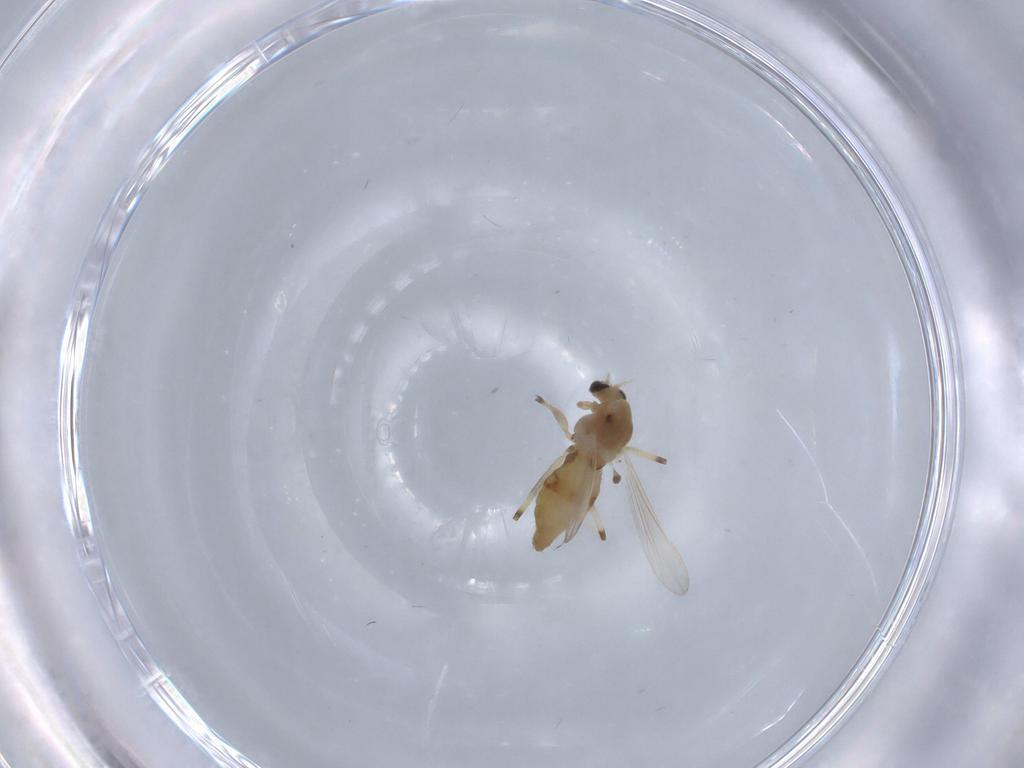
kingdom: Animalia
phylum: Arthropoda
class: Insecta
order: Diptera
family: Chironomidae
